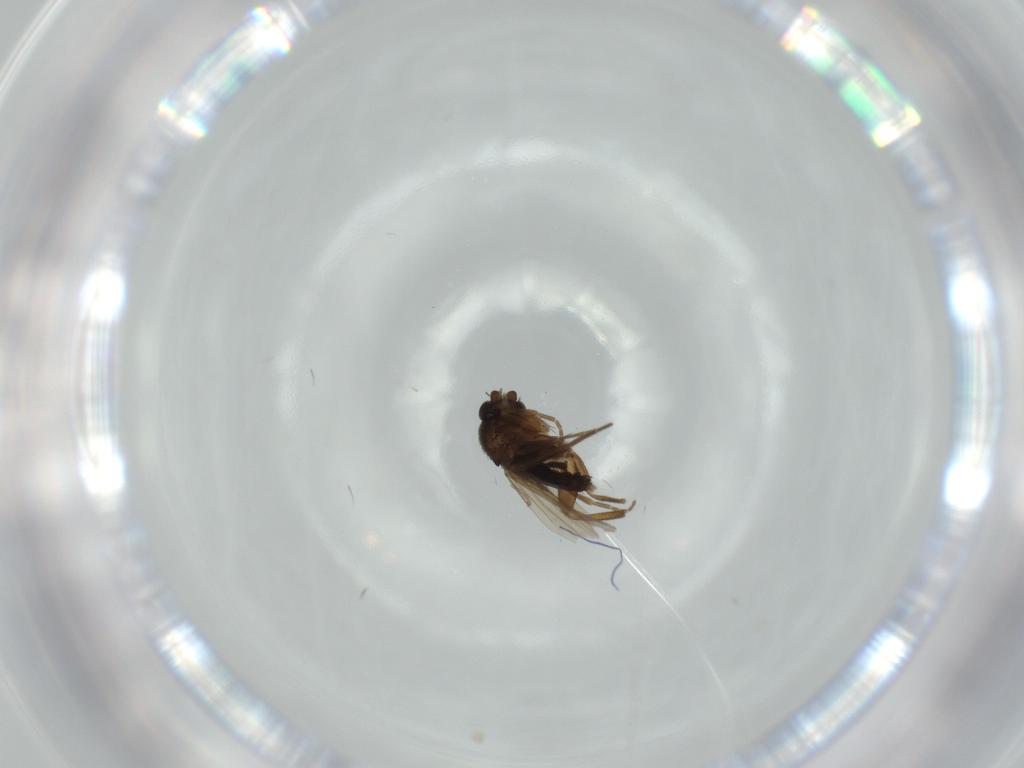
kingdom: Animalia
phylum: Arthropoda
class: Insecta
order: Diptera
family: Phoridae
